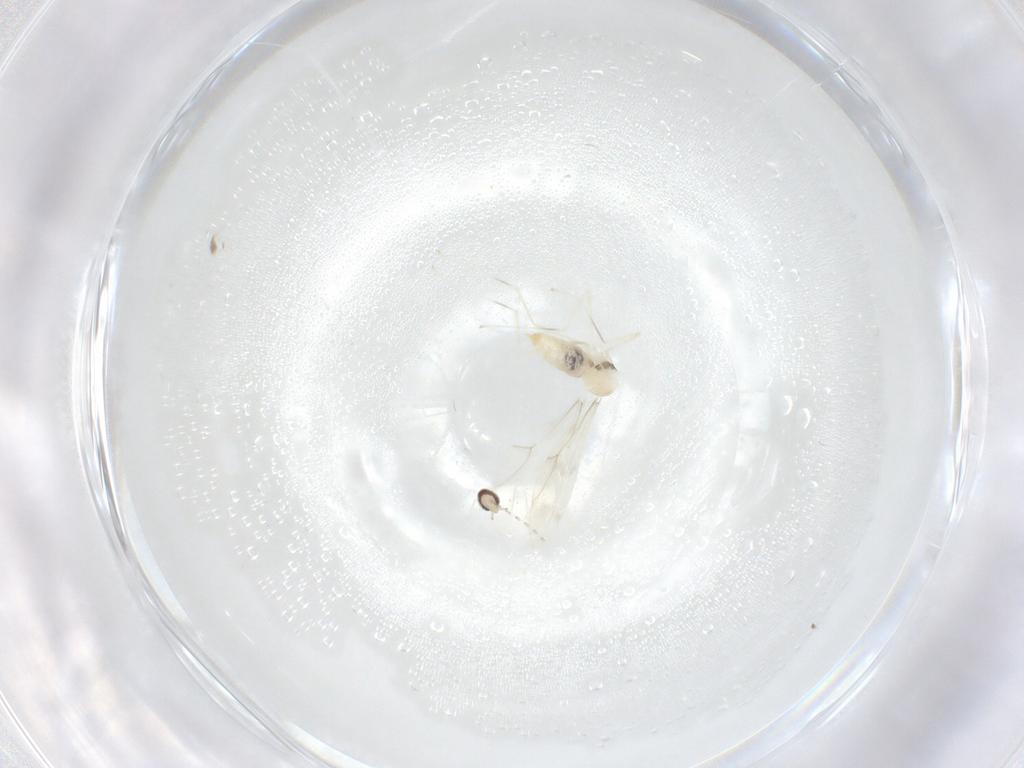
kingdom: Animalia
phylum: Arthropoda
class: Insecta
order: Diptera
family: Cecidomyiidae
